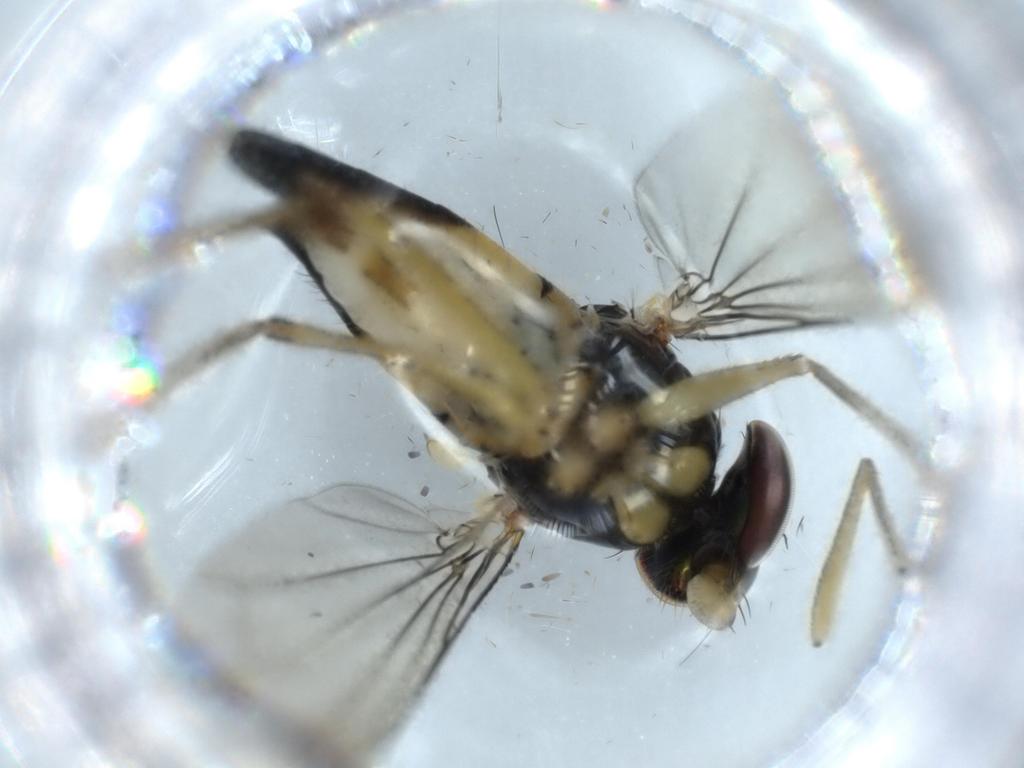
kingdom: Animalia
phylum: Arthropoda
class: Insecta
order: Diptera
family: Dolichopodidae
